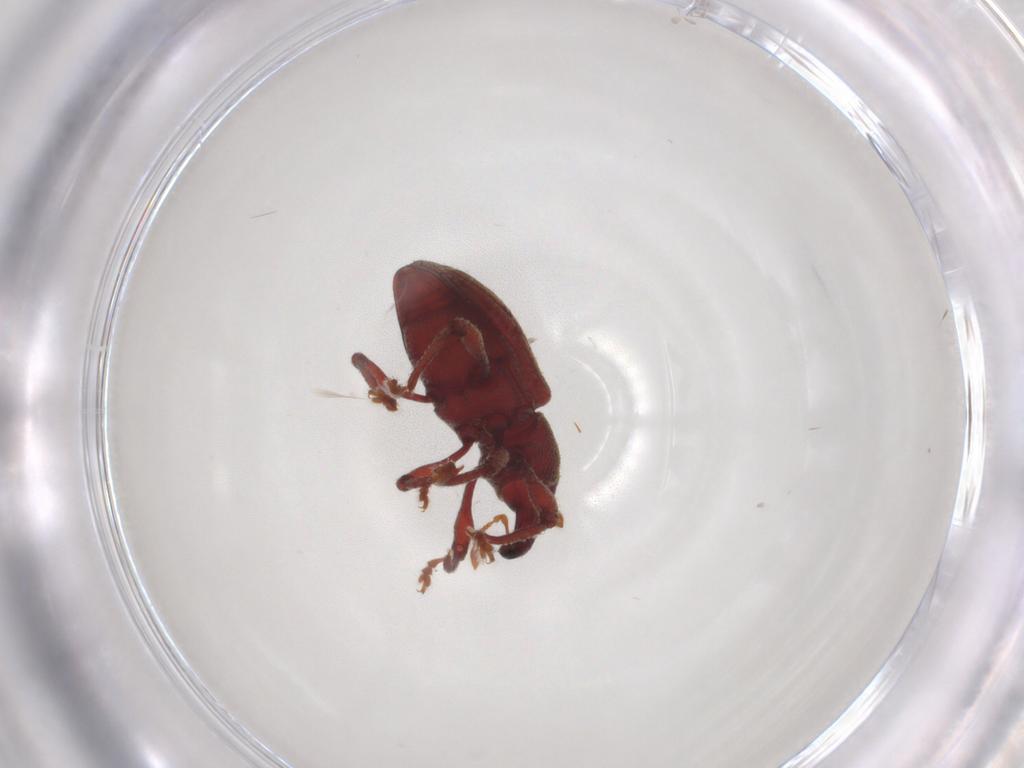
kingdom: Animalia
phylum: Arthropoda
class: Insecta
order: Coleoptera
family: Hydrophilidae
